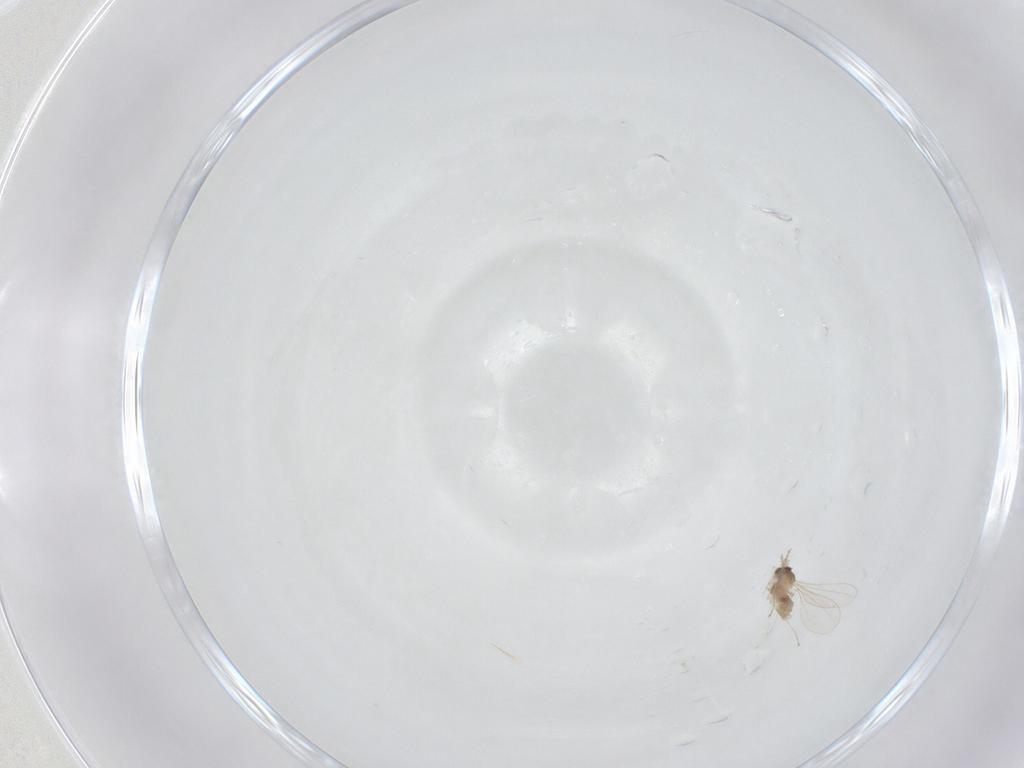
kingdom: Animalia
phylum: Arthropoda
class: Insecta
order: Diptera
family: Cecidomyiidae
